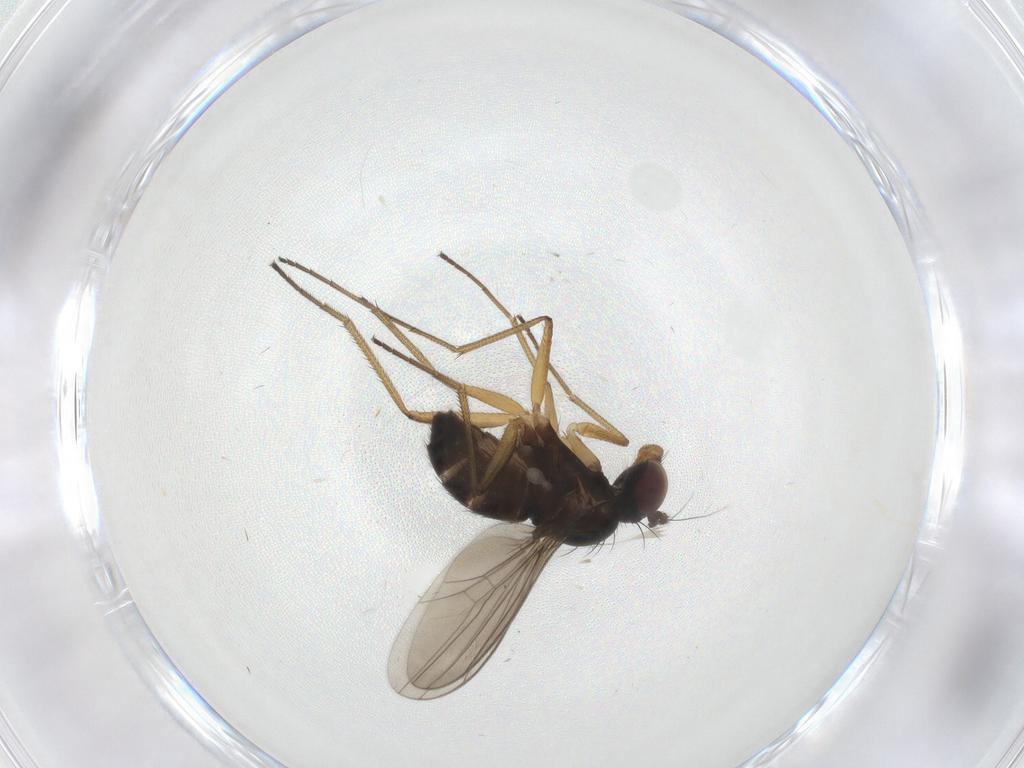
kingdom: Animalia
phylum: Arthropoda
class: Insecta
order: Diptera
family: Dolichopodidae
